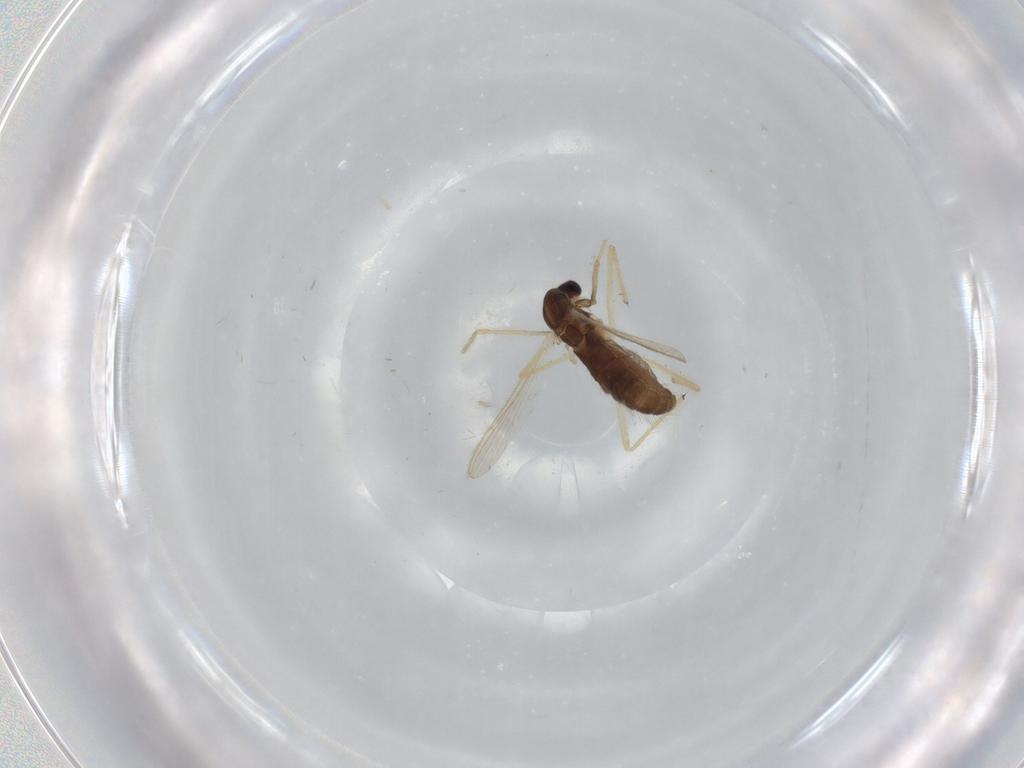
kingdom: Animalia
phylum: Arthropoda
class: Insecta
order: Diptera
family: Chironomidae
